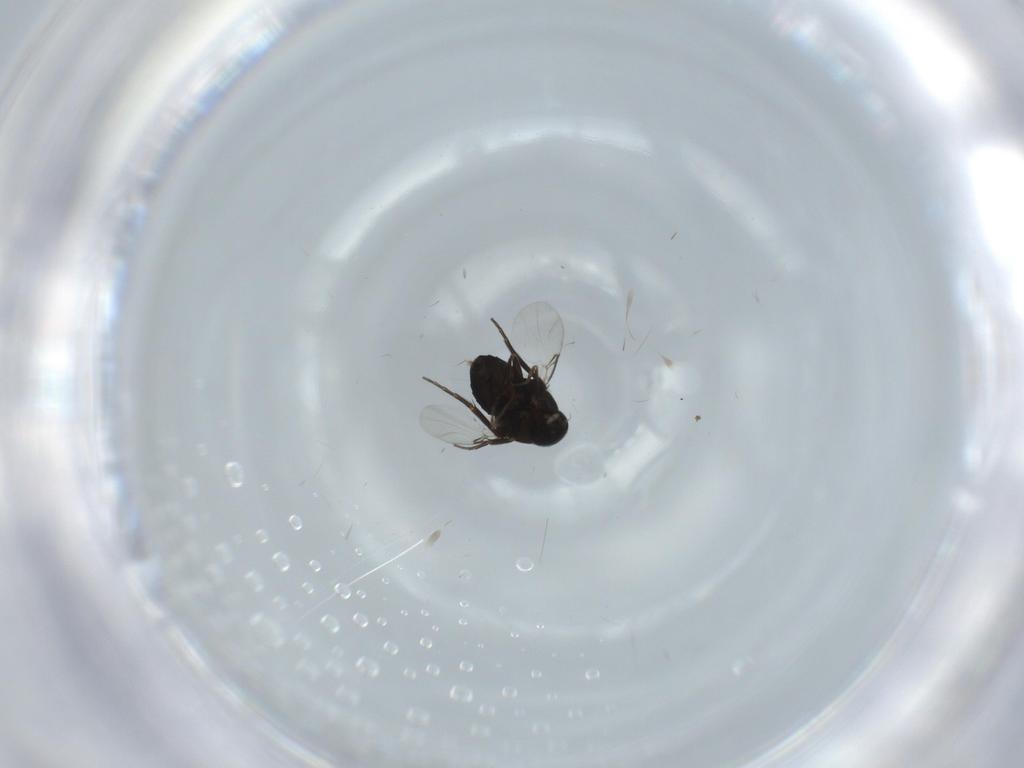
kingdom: Animalia
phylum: Arthropoda
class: Insecta
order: Diptera
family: Phoridae
